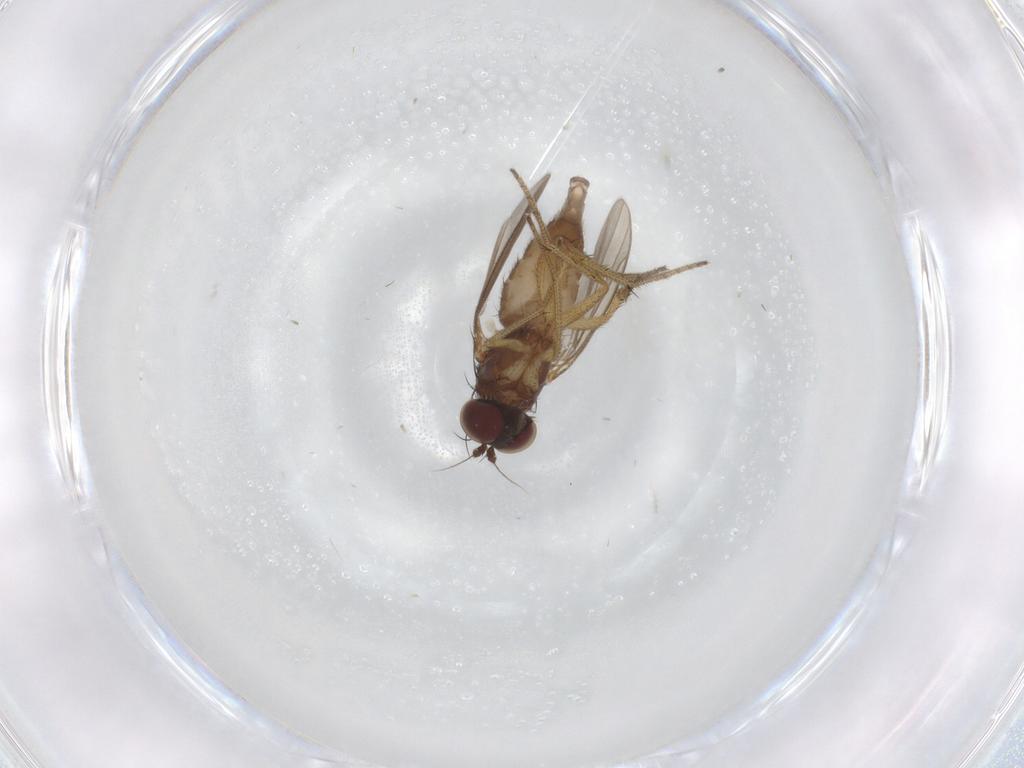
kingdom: Animalia
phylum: Arthropoda
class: Insecta
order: Diptera
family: Dolichopodidae
